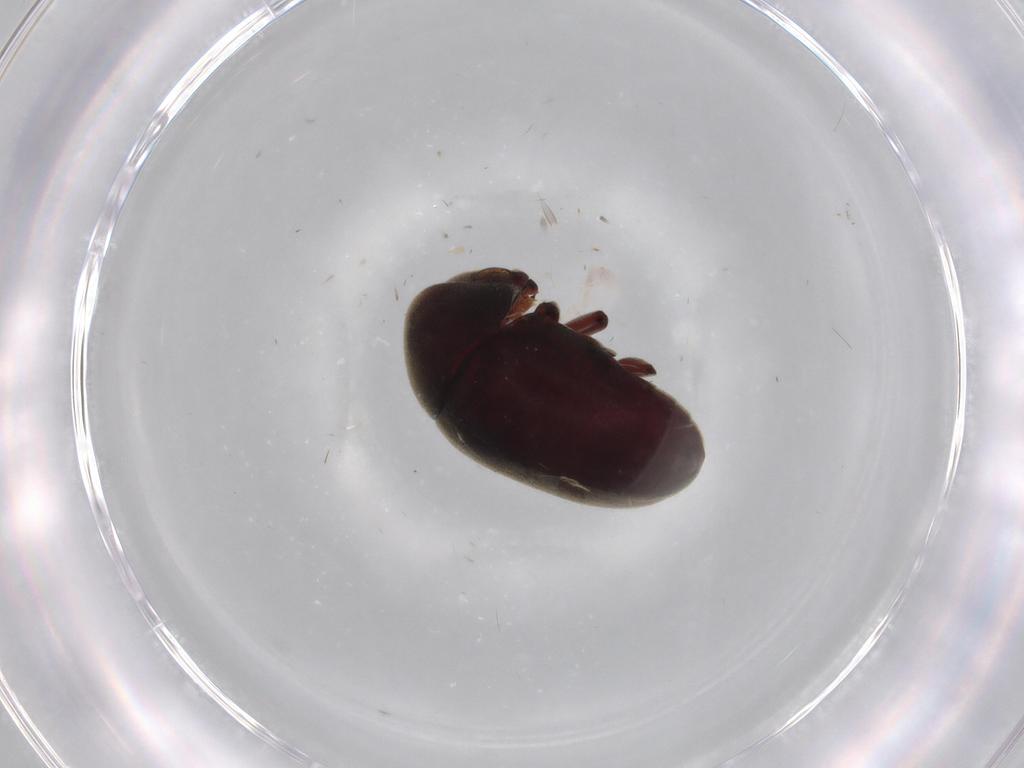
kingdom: Animalia
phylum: Arthropoda
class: Insecta
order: Coleoptera
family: Ptinidae
